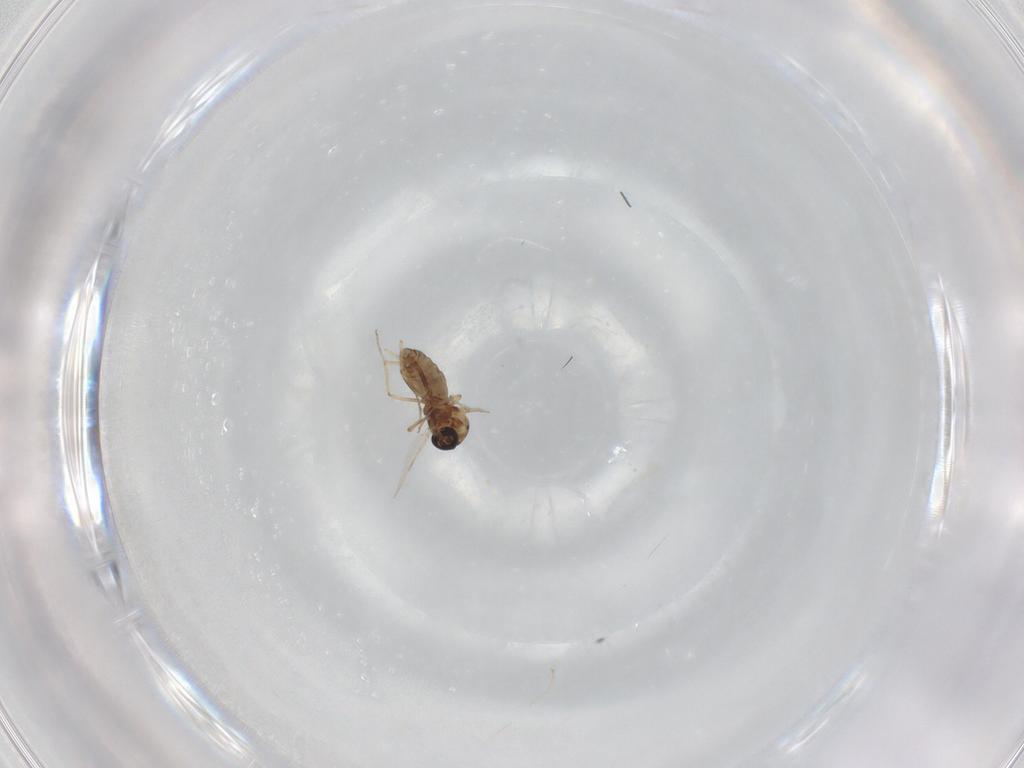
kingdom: Animalia
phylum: Arthropoda
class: Insecta
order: Diptera
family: Cecidomyiidae
